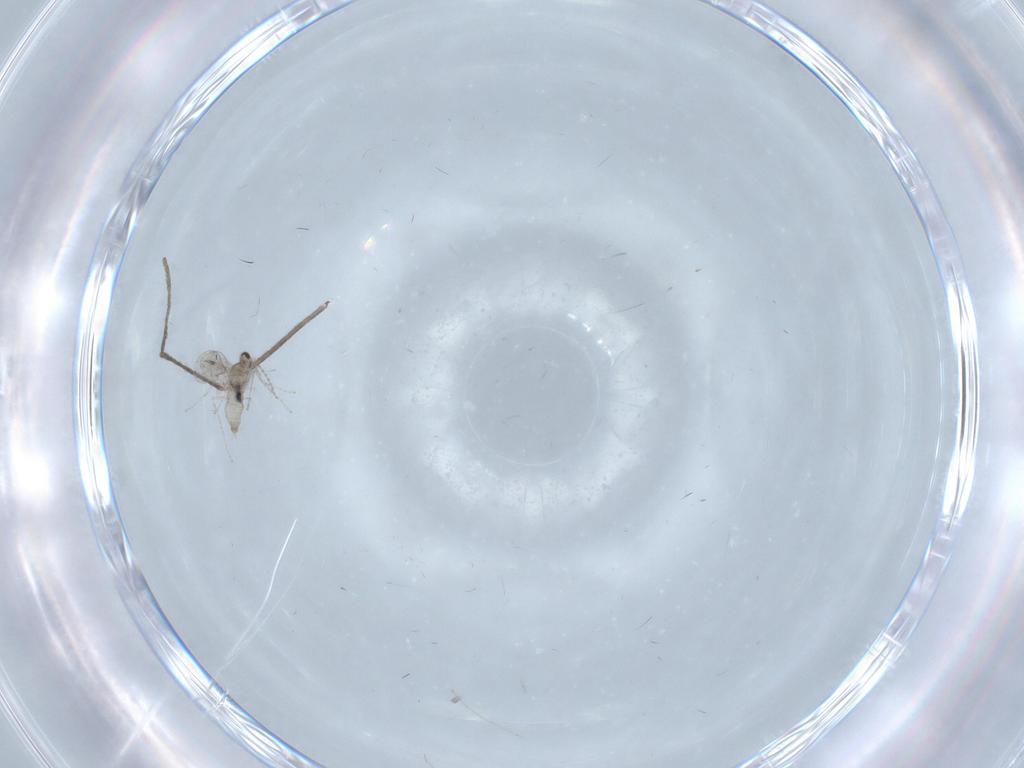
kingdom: Animalia
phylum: Arthropoda
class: Insecta
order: Diptera
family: Limoniidae
